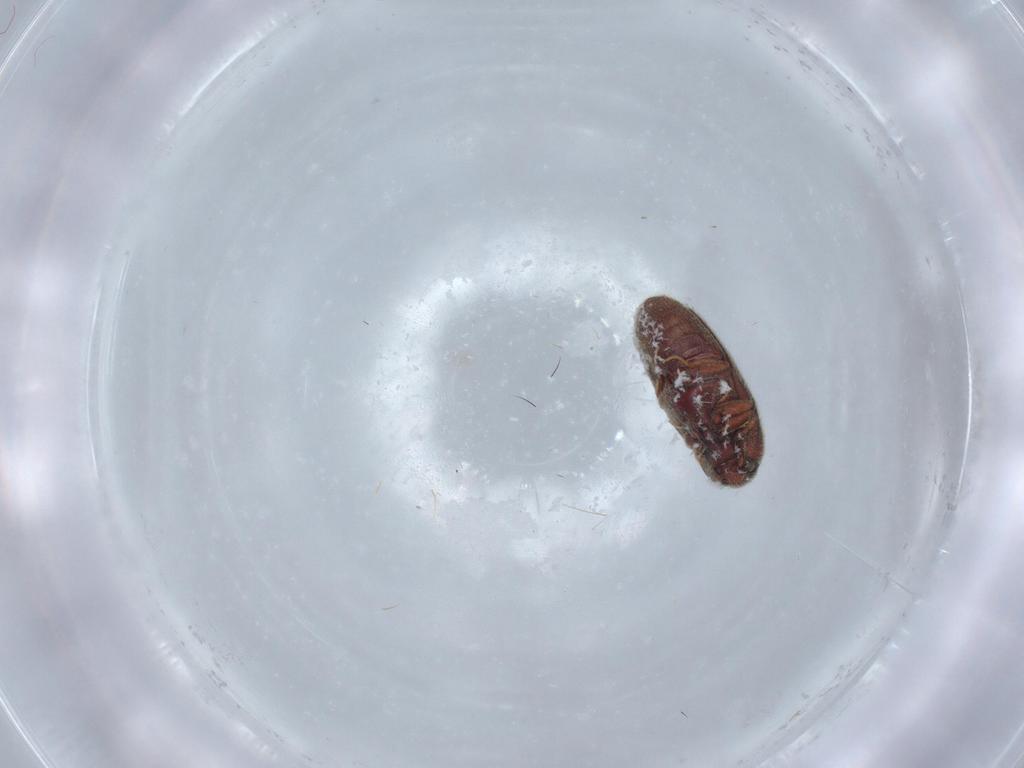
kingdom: Animalia
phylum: Arthropoda
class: Insecta
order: Coleoptera
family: Throscidae
